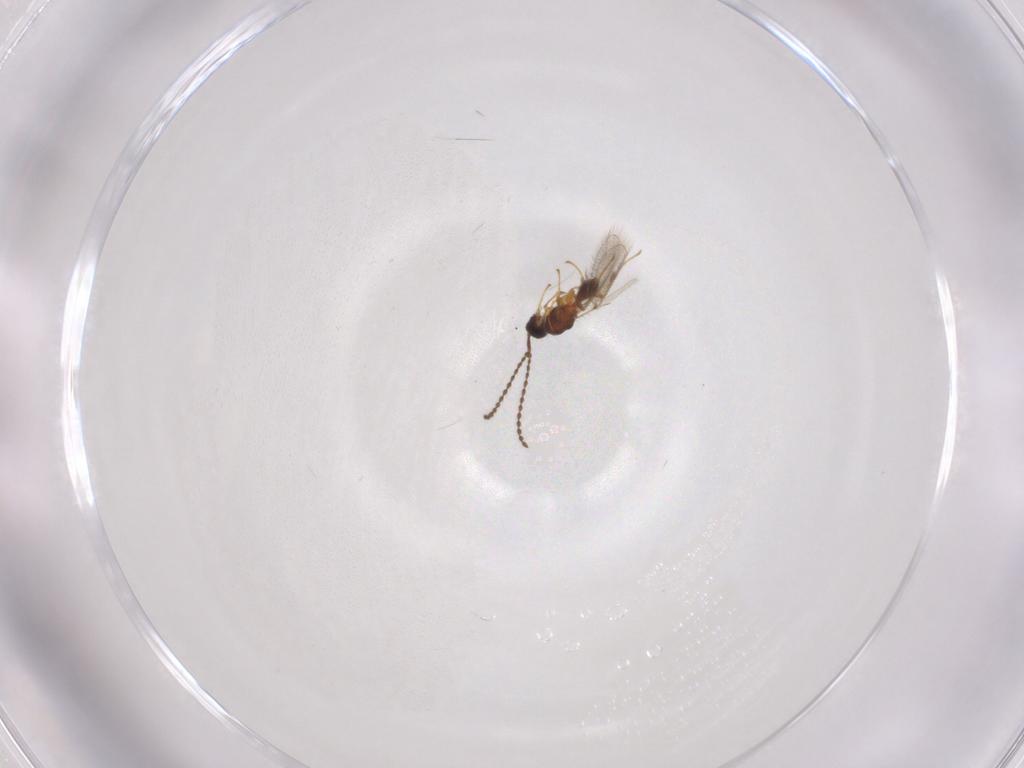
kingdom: Animalia
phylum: Arthropoda
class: Insecta
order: Hymenoptera
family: Diapriidae
